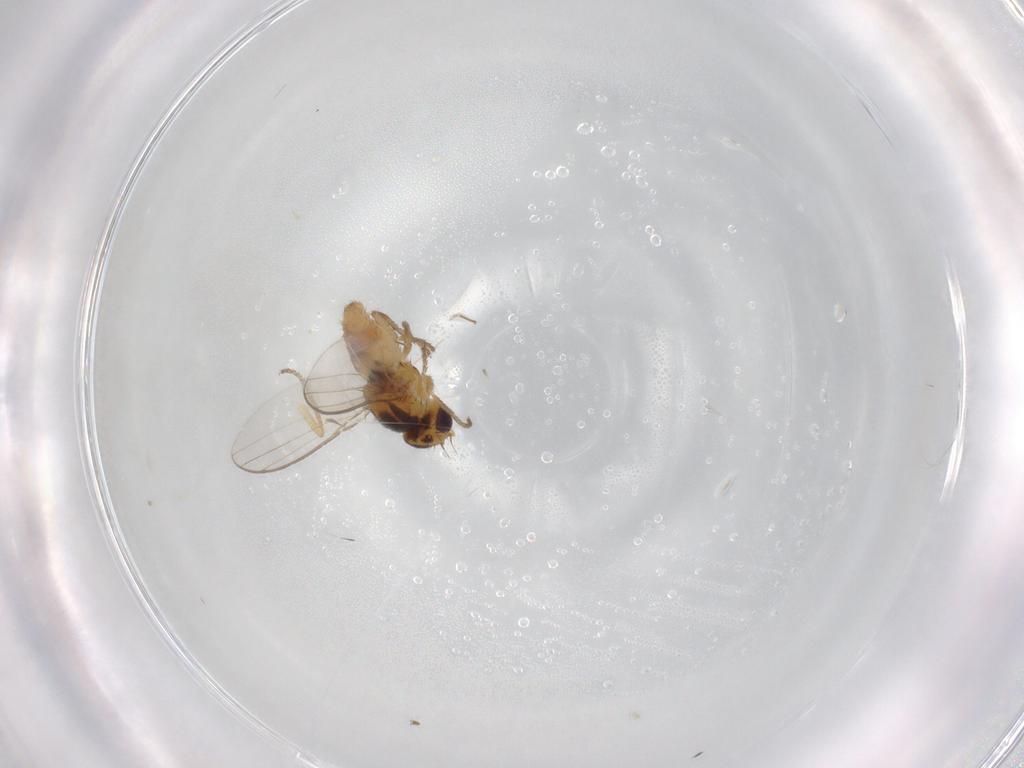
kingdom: Animalia
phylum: Arthropoda
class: Insecta
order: Diptera
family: Chloropidae
